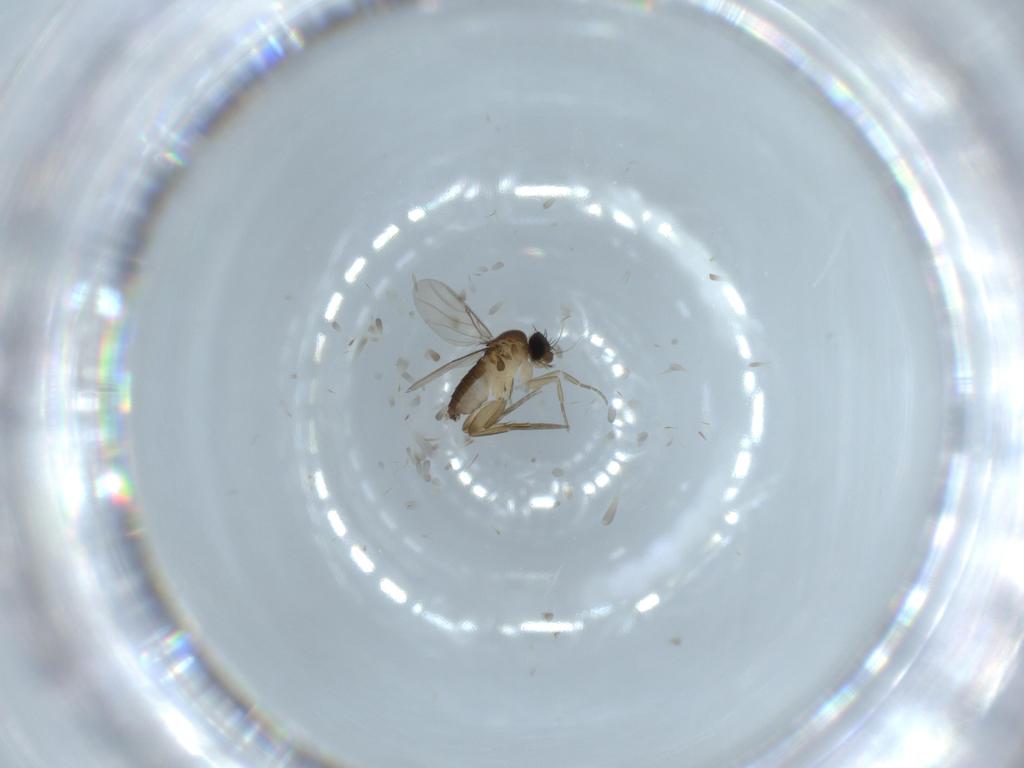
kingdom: Animalia
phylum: Arthropoda
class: Insecta
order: Diptera
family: Phoridae
